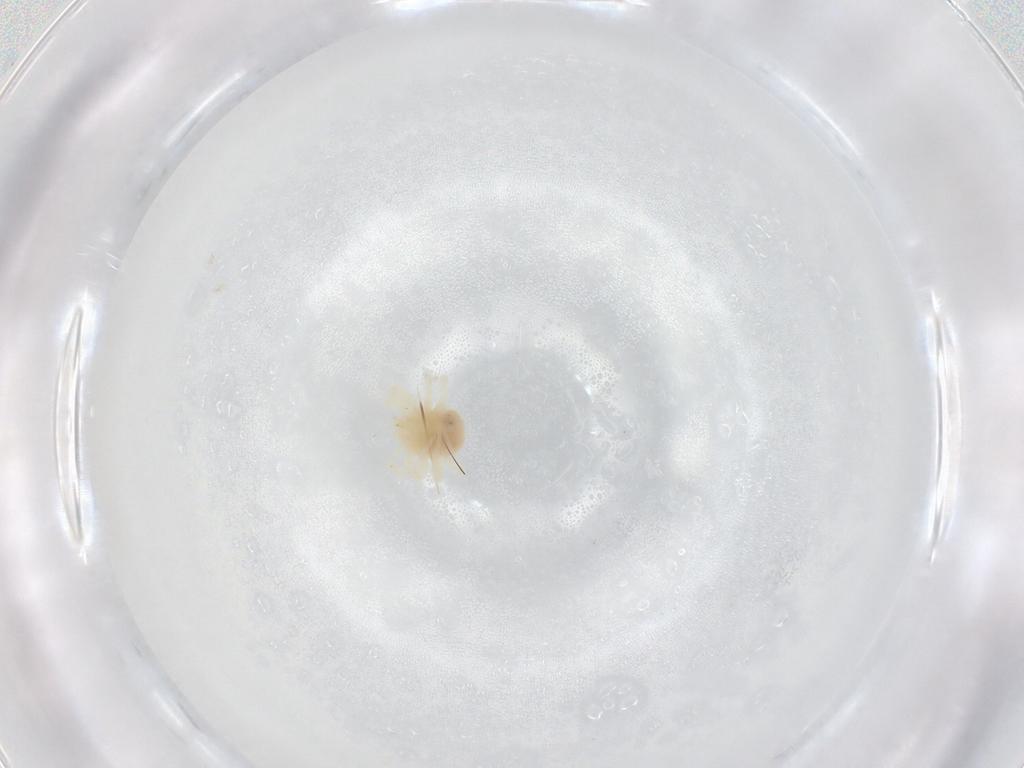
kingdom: Animalia
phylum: Arthropoda
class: Arachnida
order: Trombidiformes
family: Anystidae
